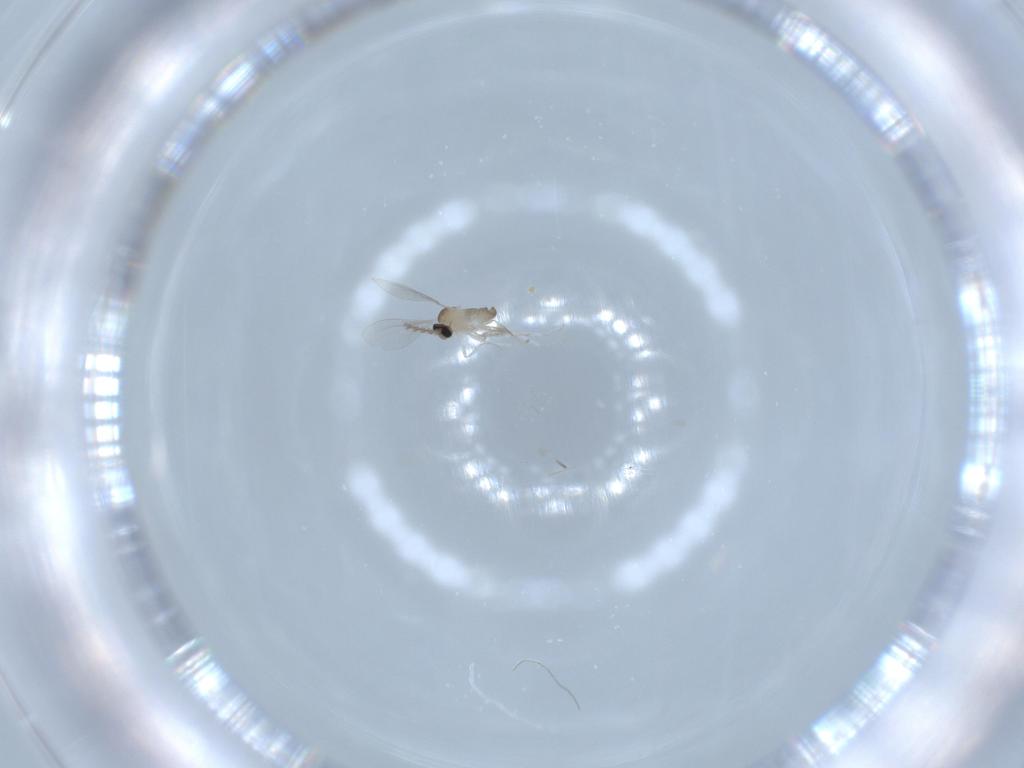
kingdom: Animalia
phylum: Arthropoda
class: Insecta
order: Diptera
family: Cecidomyiidae
